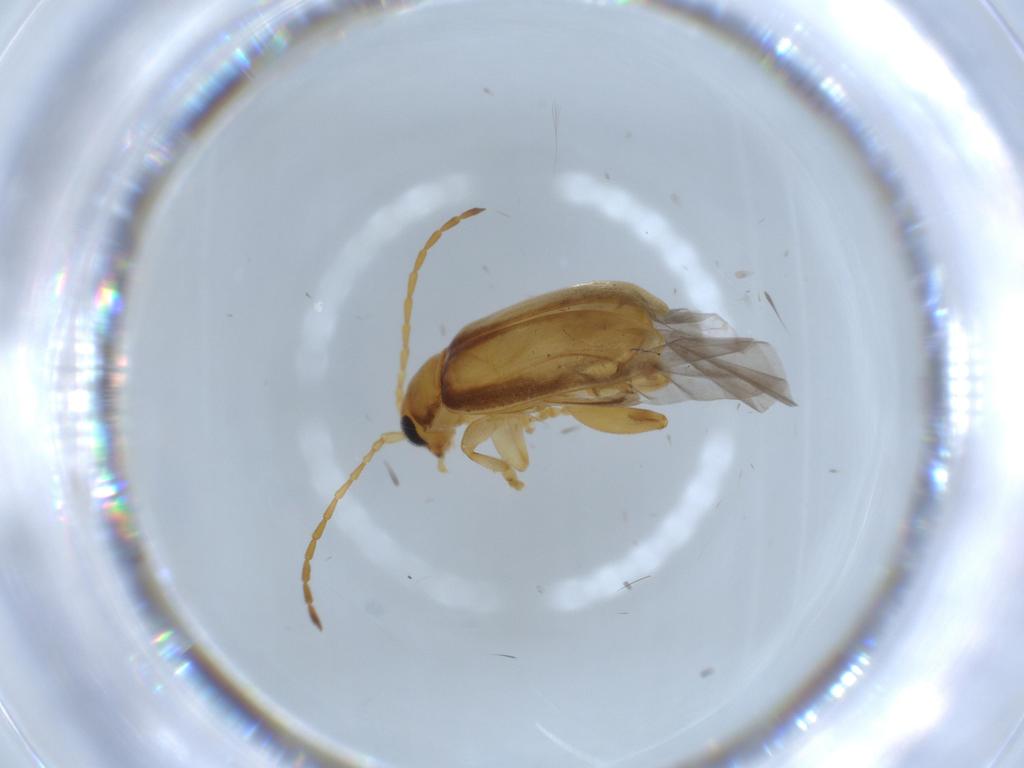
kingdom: Animalia
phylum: Arthropoda
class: Insecta
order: Coleoptera
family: Chrysomelidae
